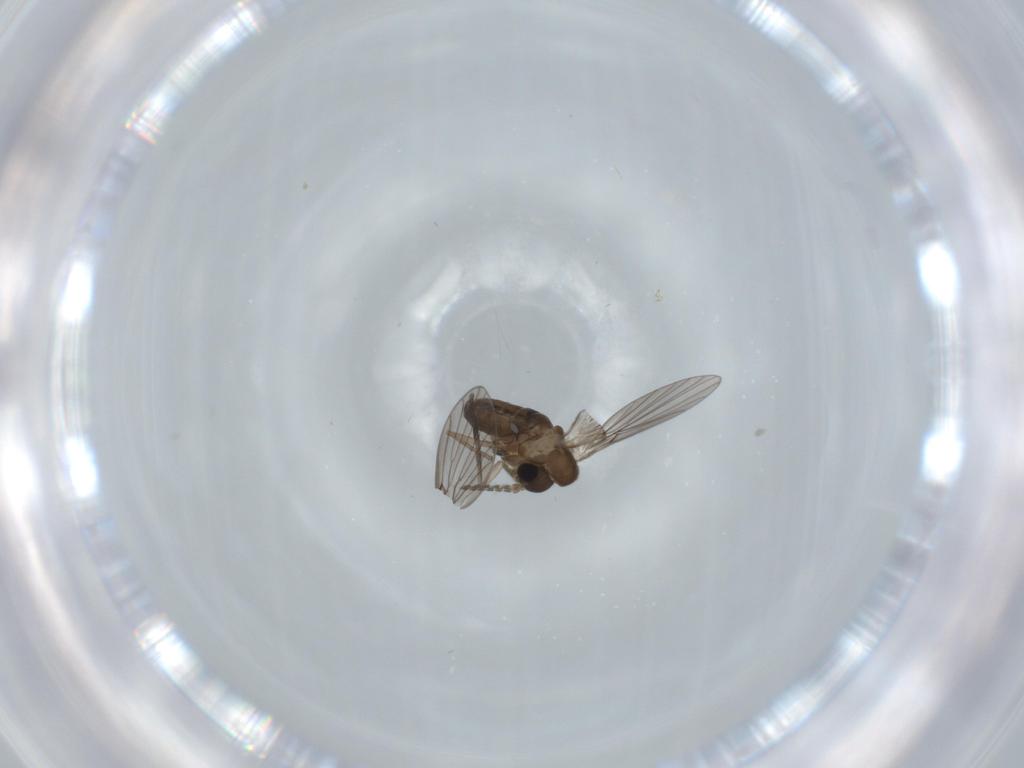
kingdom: Animalia
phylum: Arthropoda
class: Insecta
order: Diptera
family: Psychodidae
